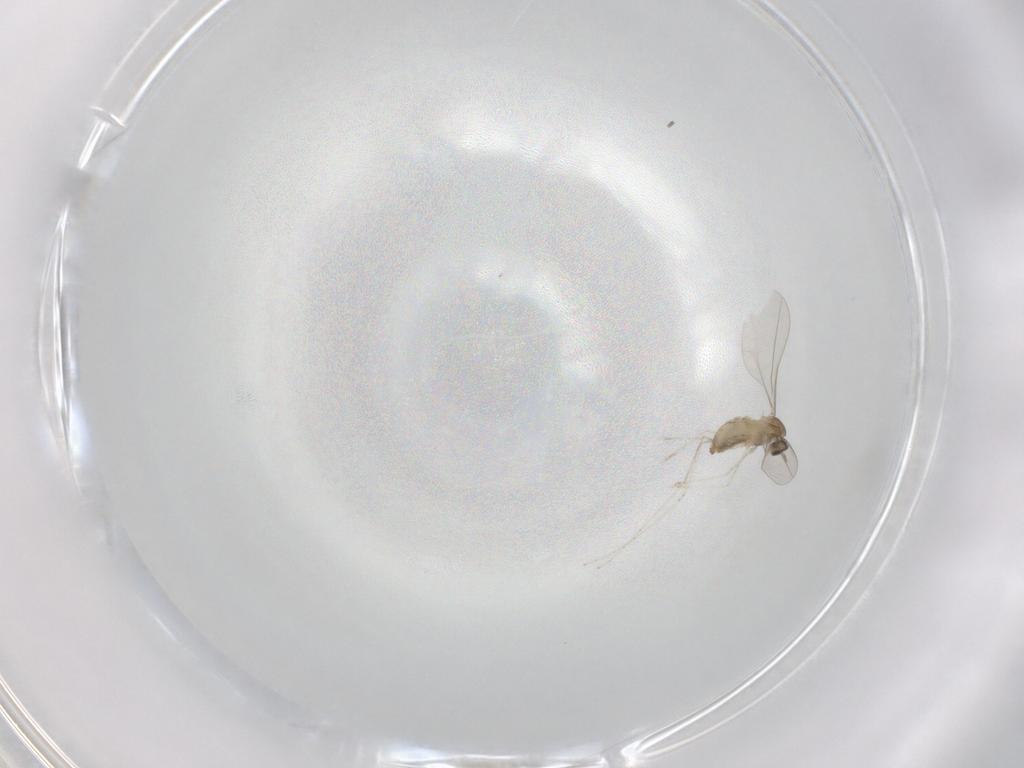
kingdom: Animalia
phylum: Arthropoda
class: Insecta
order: Diptera
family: Cecidomyiidae
